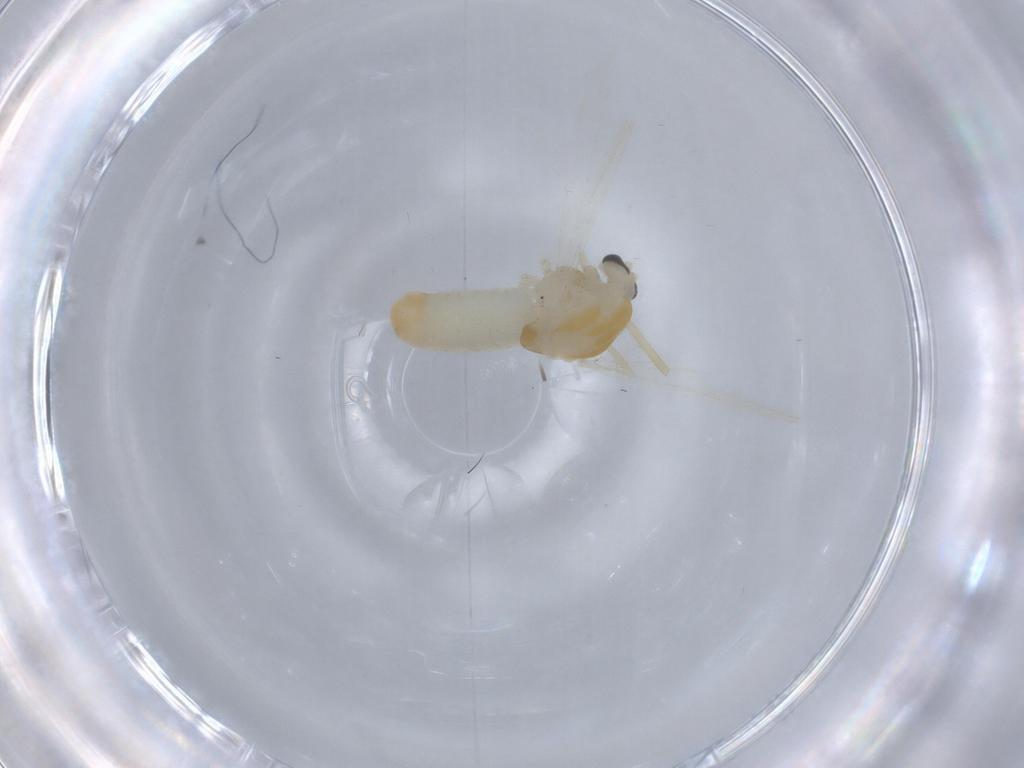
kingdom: Animalia
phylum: Arthropoda
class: Insecta
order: Diptera
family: Chironomidae
